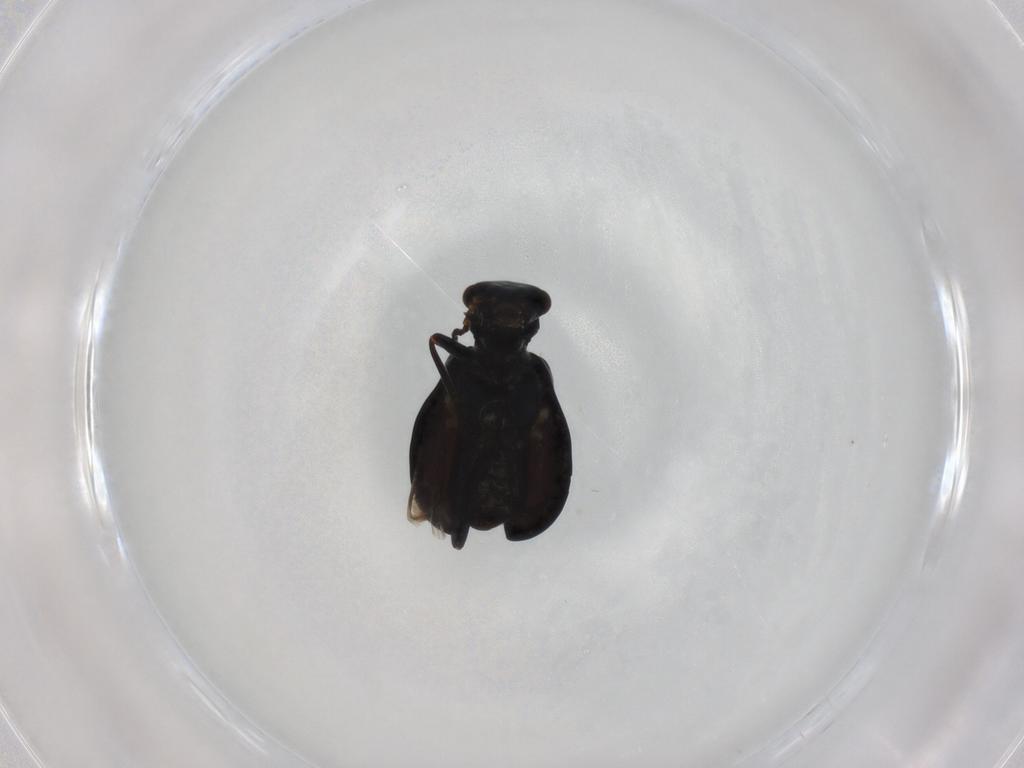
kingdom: Animalia
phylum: Arthropoda
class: Insecta
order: Coleoptera
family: Melyridae
